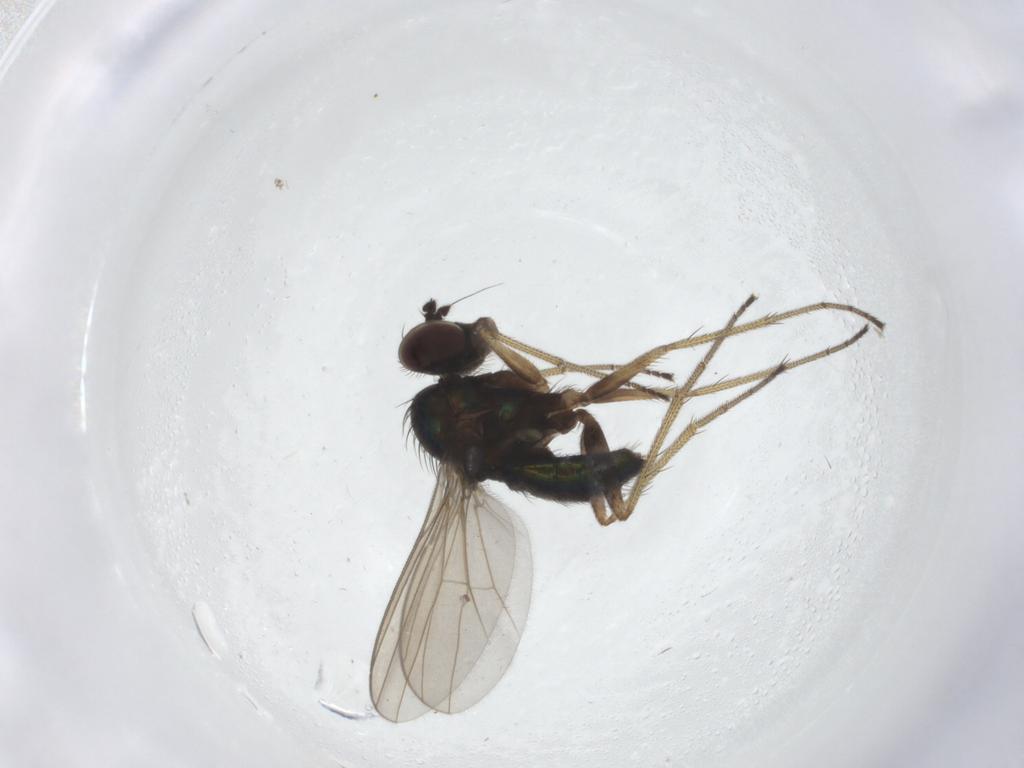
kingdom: Animalia
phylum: Arthropoda
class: Insecta
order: Diptera
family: Dolichopodidae
